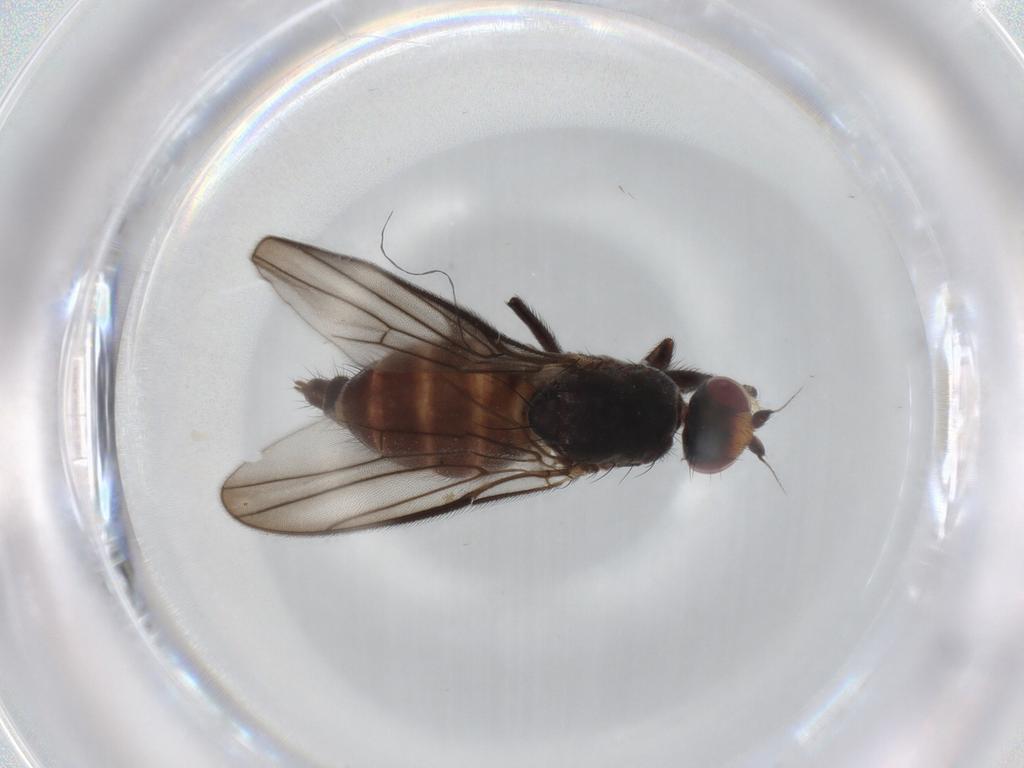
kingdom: Animalia
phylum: Arthropoda
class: Insecta
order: Diptera
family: Chloropidae
